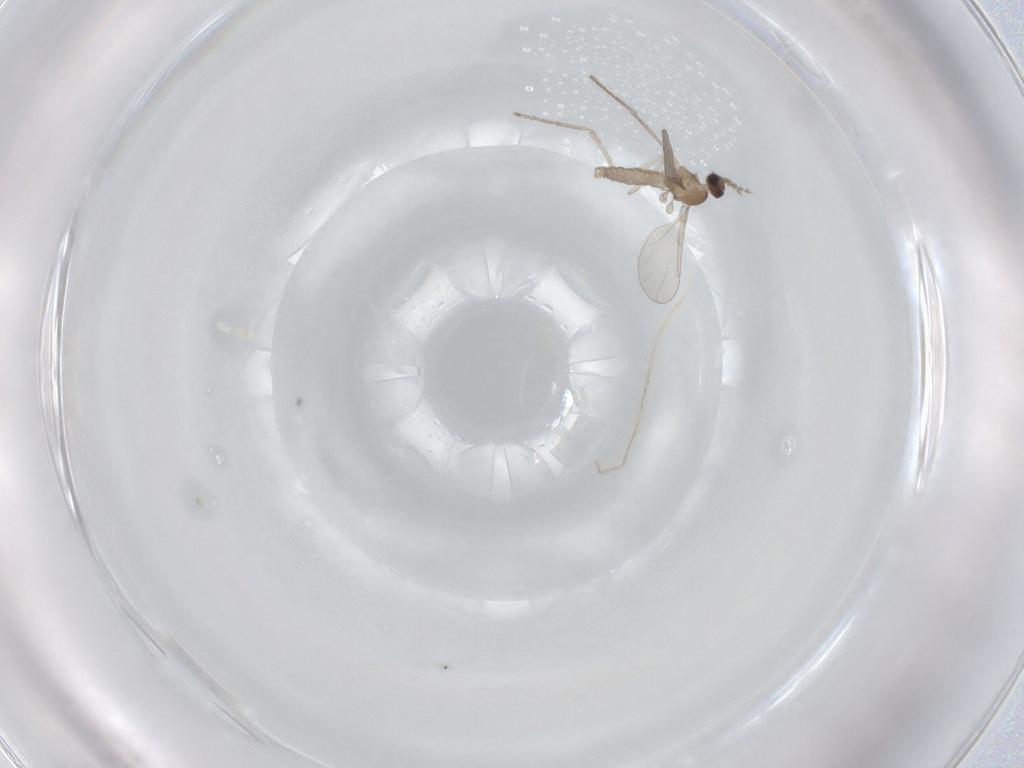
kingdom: Animalia
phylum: Arthropoda
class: Insecta
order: Diptera
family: Cecidomyiidae
